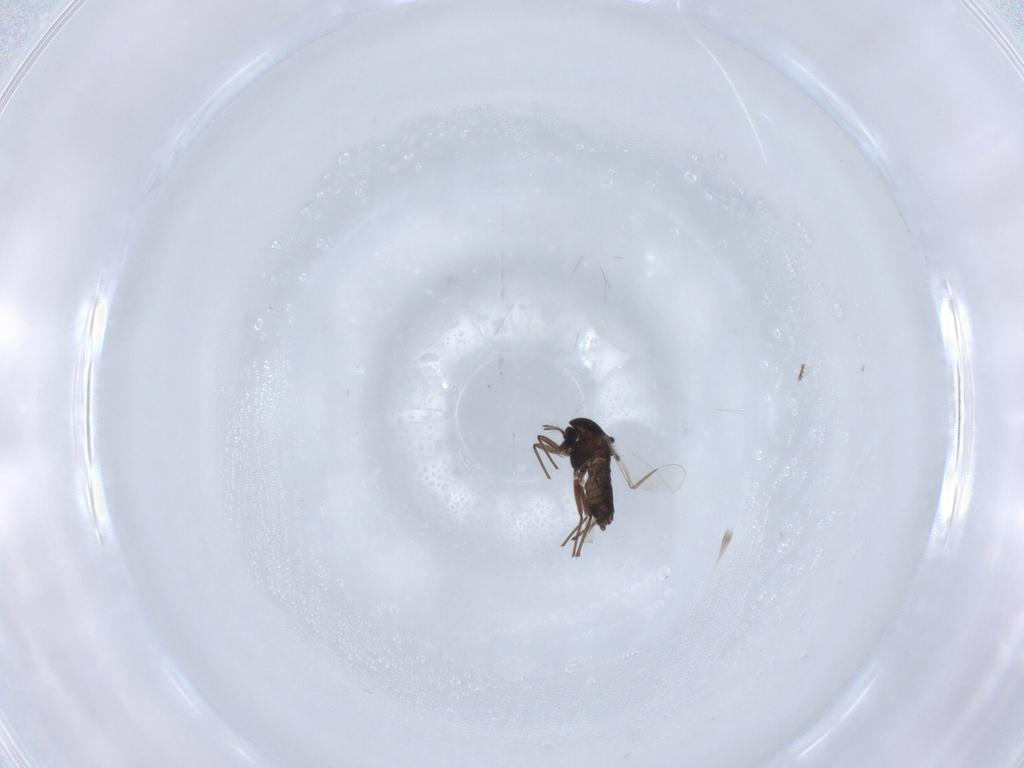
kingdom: Animalia
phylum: Arthropoda
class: Insecta
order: Diptera
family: Chironomidae
